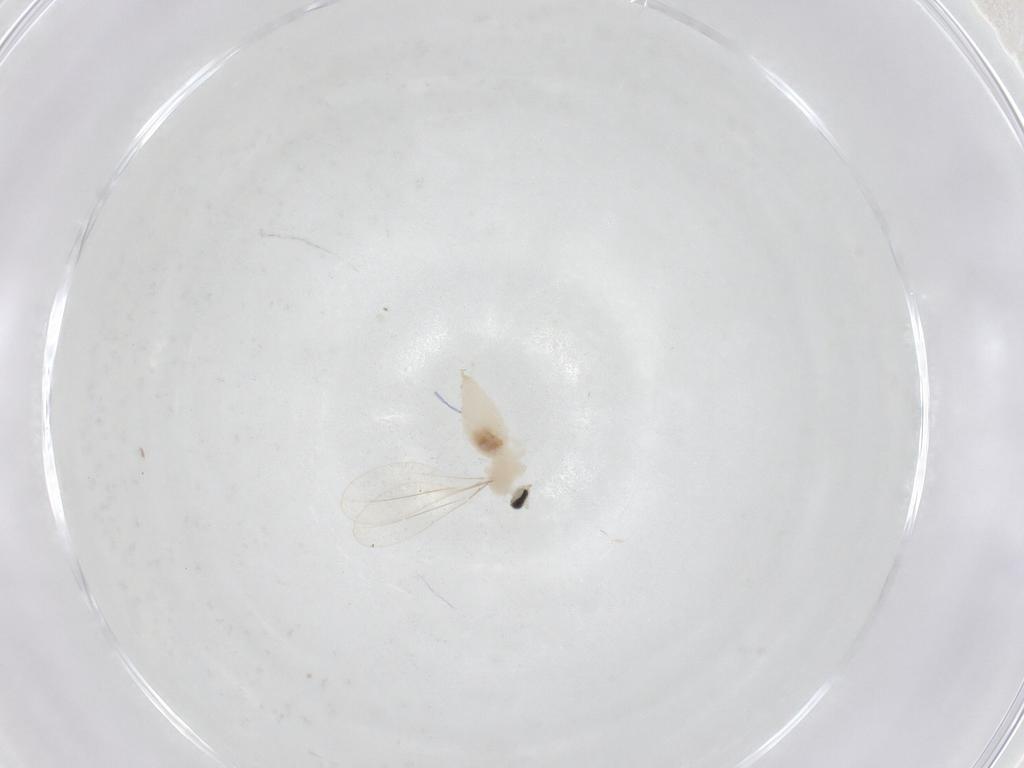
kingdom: Animalia
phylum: Arthropoda
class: Insecta
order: Diptera
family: Cecidomyiidae
